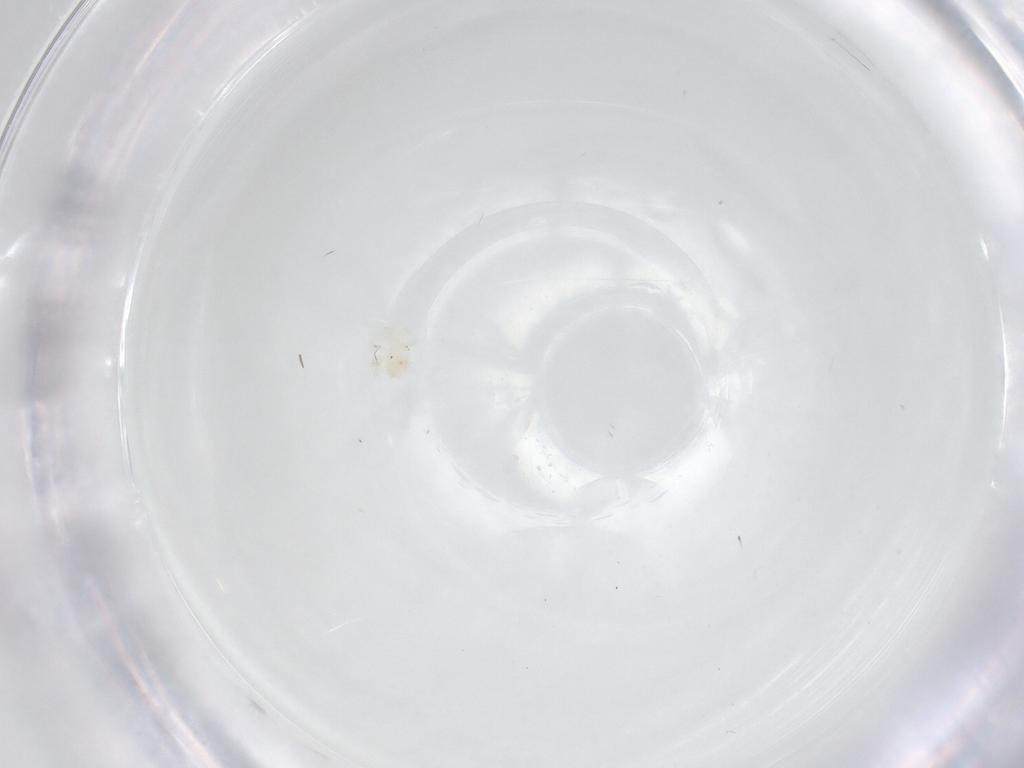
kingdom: Animalia
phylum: Arthropoda
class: Arachnida
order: Trombidiformes
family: Anystidae
